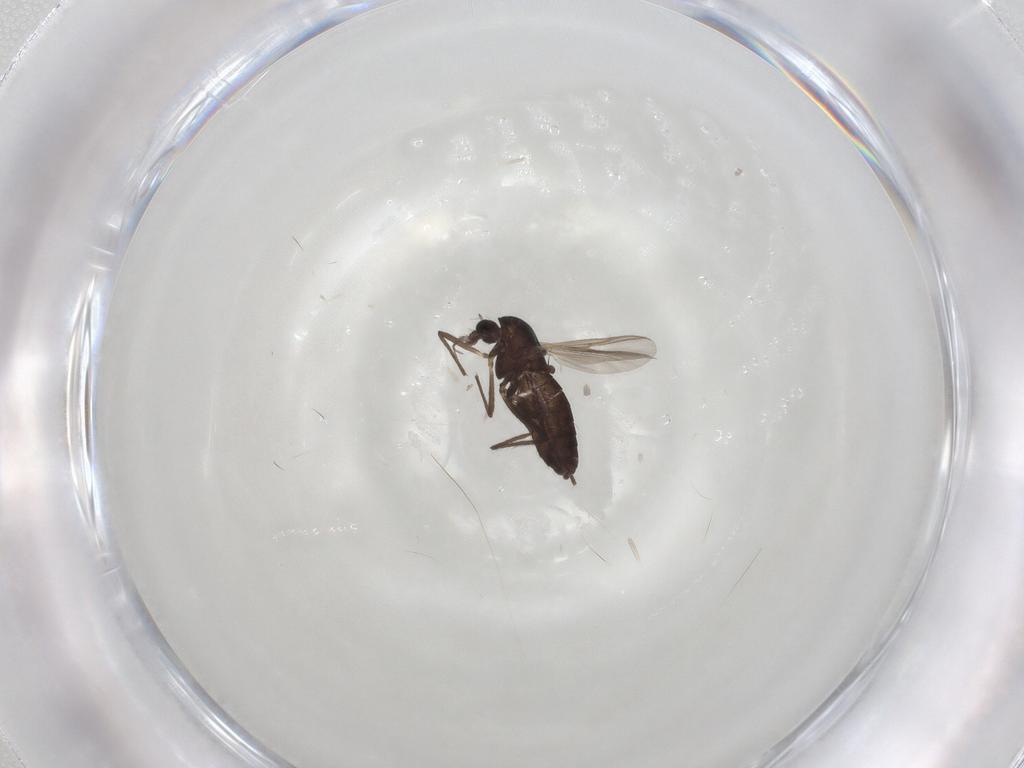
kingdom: Animalia
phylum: Arthropoda
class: Insecta
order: Diptera
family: Chironomidae
